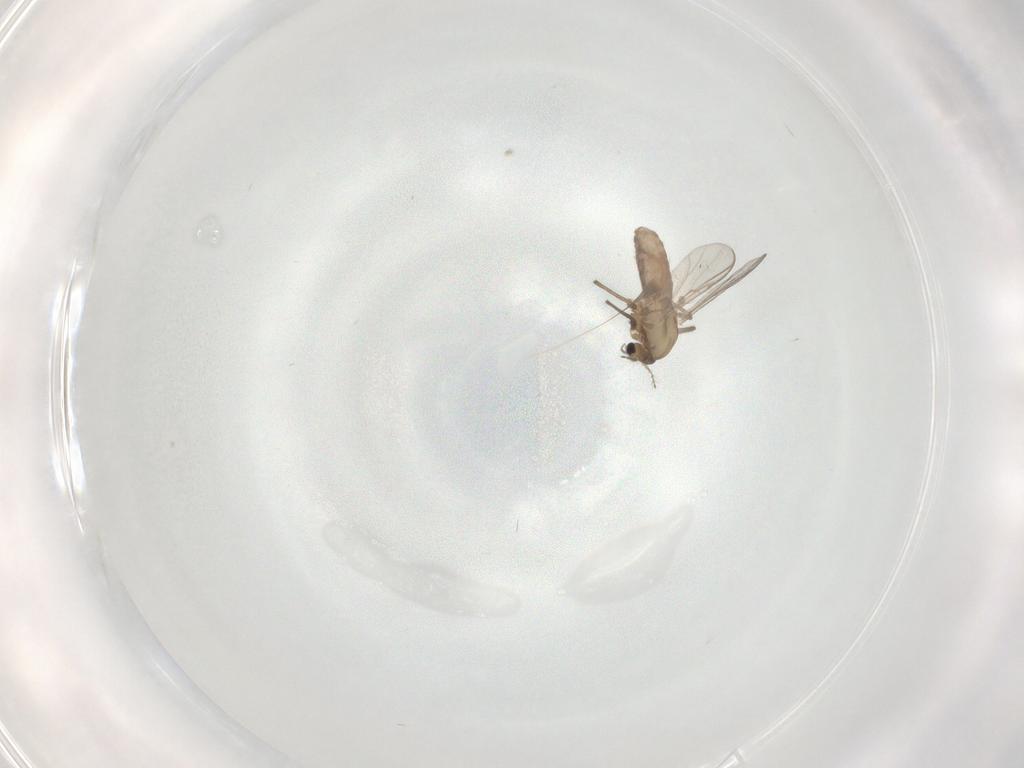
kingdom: Animalia
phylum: Arthropoda
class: Insecta
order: Diptera
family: Chironomidae
